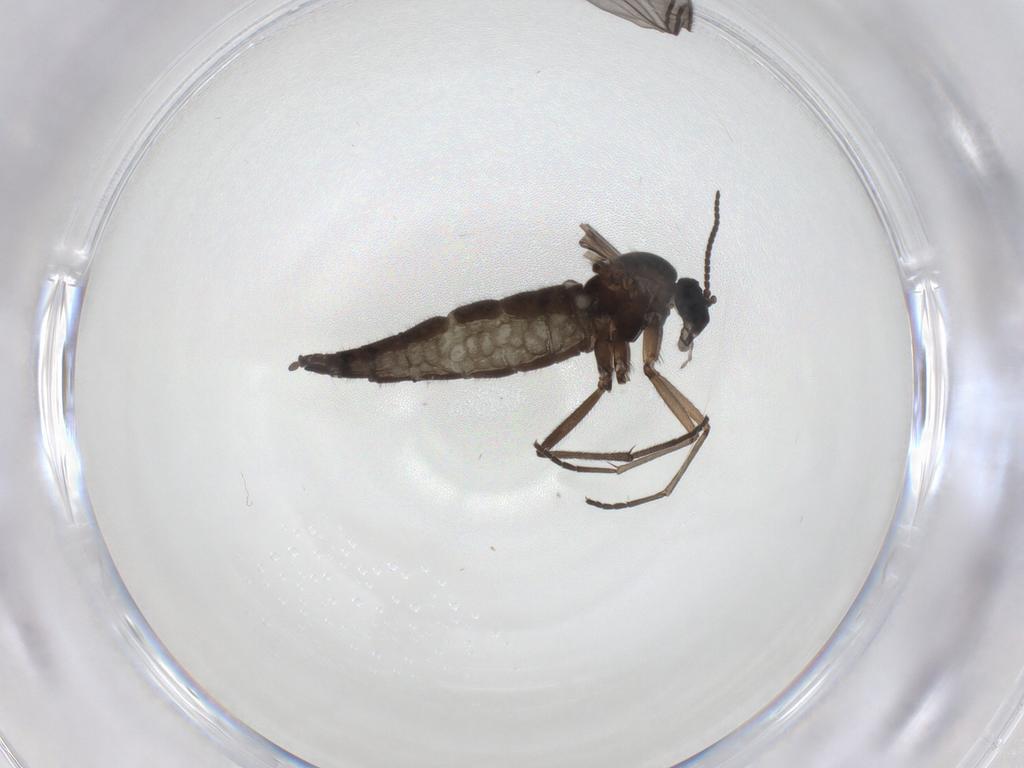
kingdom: Animalia
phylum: Arthropoda
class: Insecta
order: Diptera
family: Sciaridae
